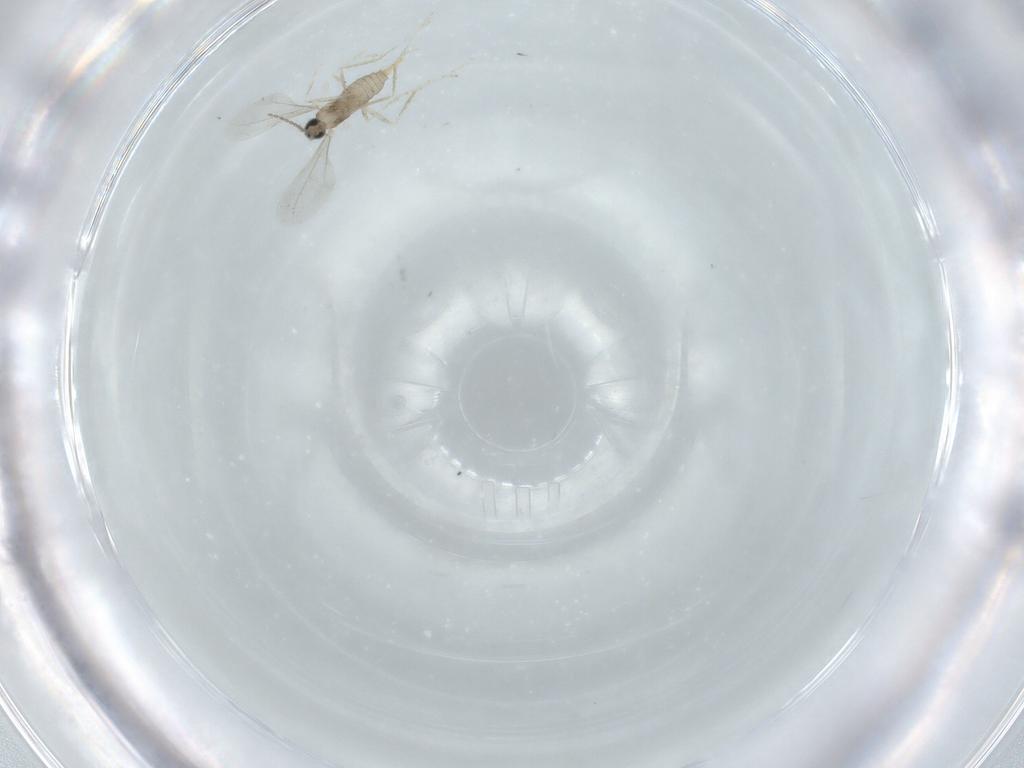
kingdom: Animalia
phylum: Arthropoda
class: Insecta
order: Diptera
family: Cecidomyiidae
